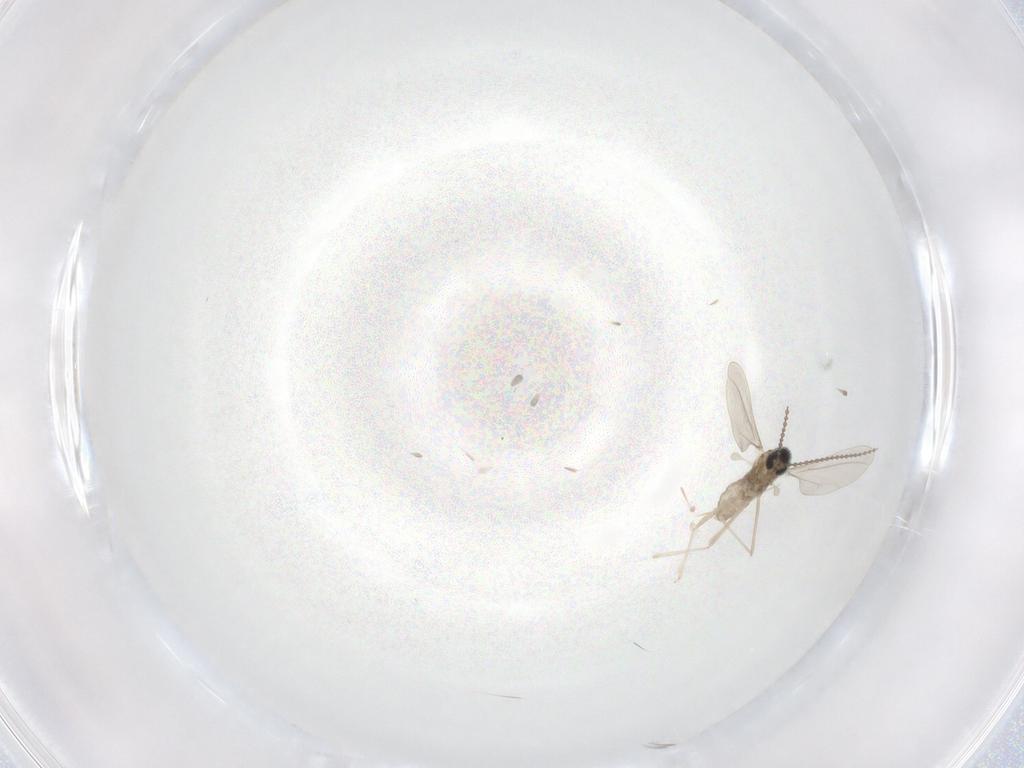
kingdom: Animalia
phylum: Arthropoda
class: Insecta
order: Diptera
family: Cecidomyiidae
